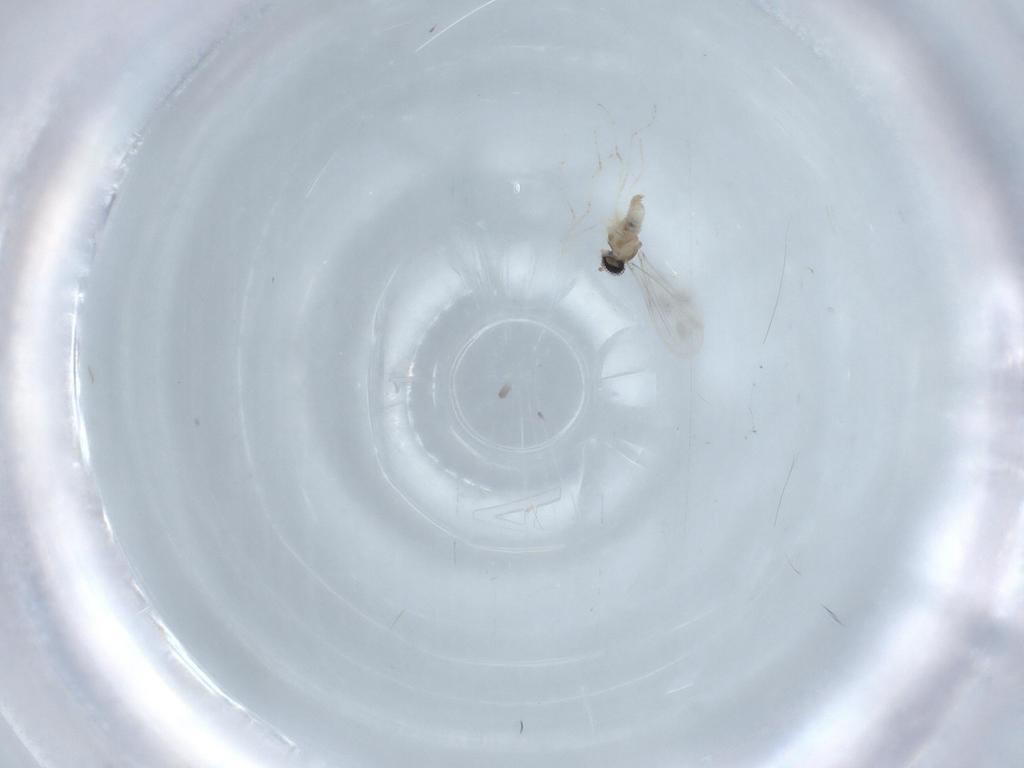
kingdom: Animalia
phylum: Arthropoda
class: Insecta
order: Diptera
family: Cecidomyiidae
